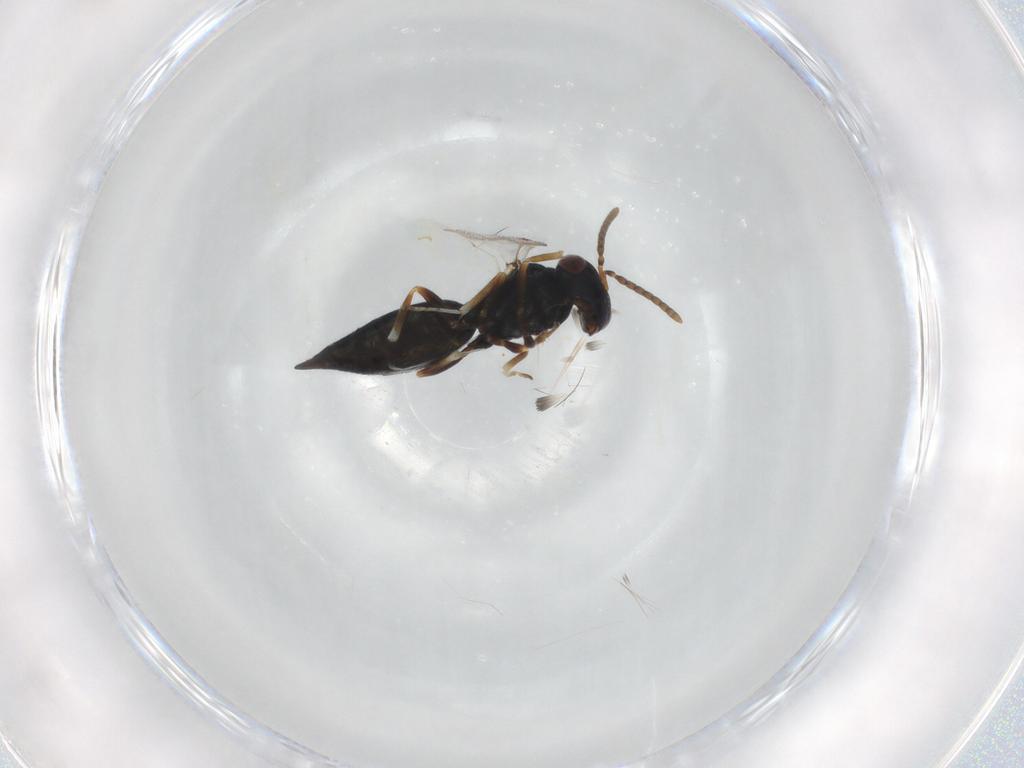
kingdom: Animalia
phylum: Arthropoda
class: Insecta
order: Hymenoptera
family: Pteromalidae
